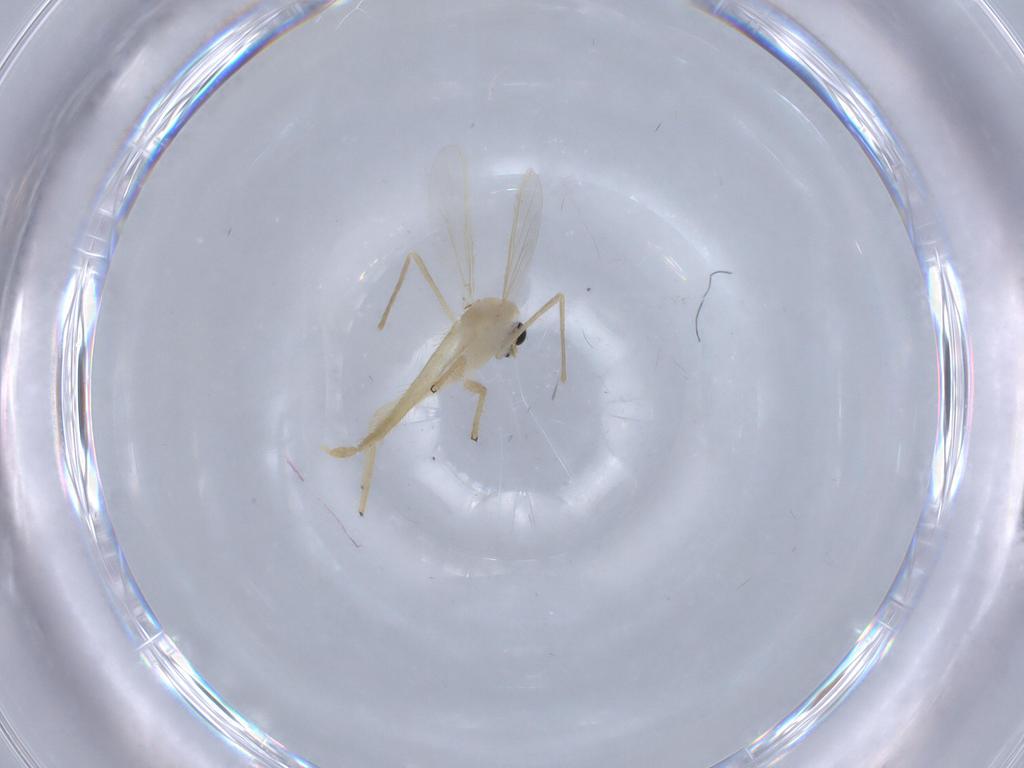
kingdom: Animalia
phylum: Arthropoda
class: Insecta
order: Diptera
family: Chironomidae
